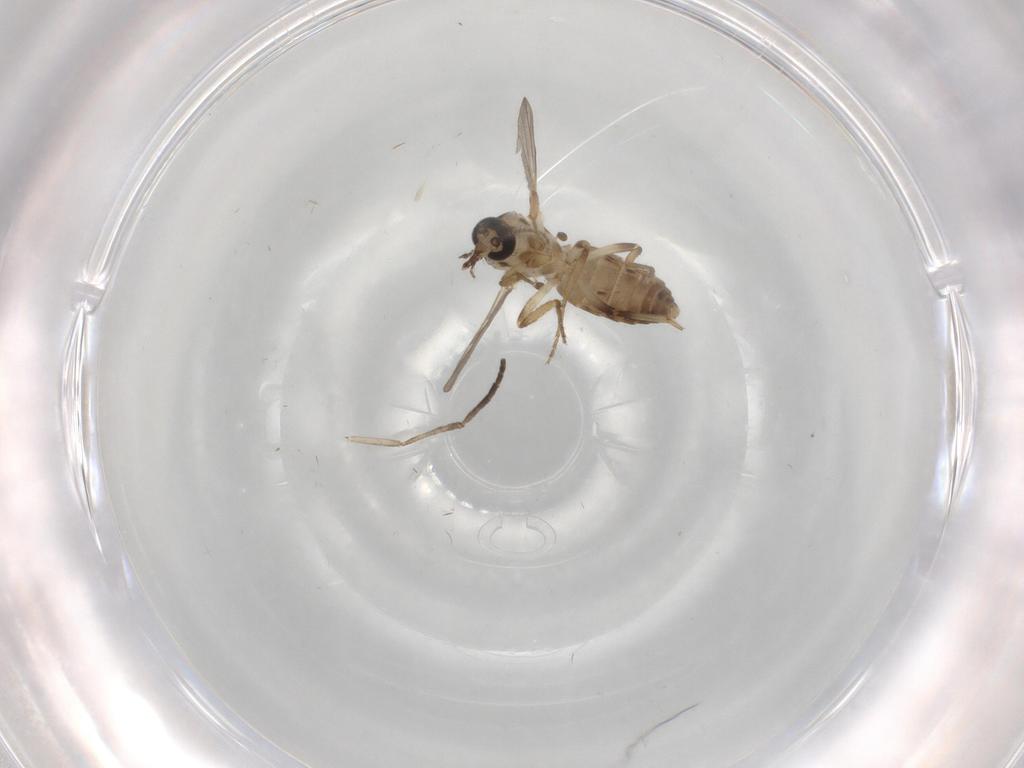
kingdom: Animalia
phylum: Arthropoda
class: Insecta
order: Diptera
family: Ceratopogonidae
